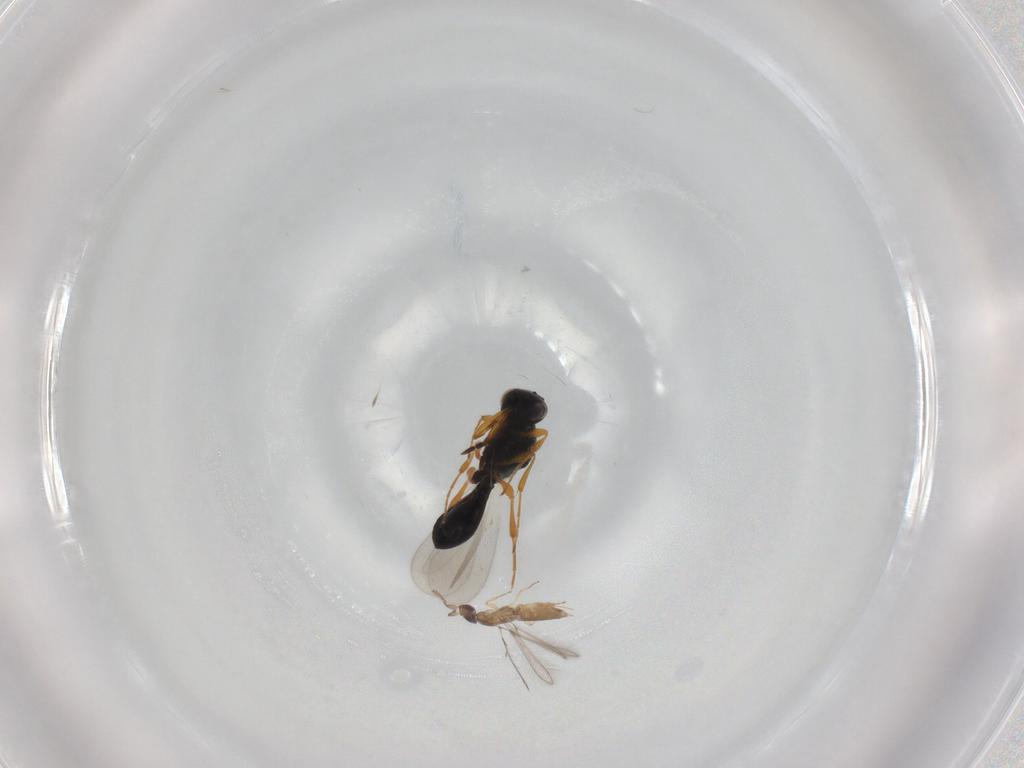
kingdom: Animalia
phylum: Arthropoda
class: Insecta
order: Hymenoptera
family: Platygastridae
